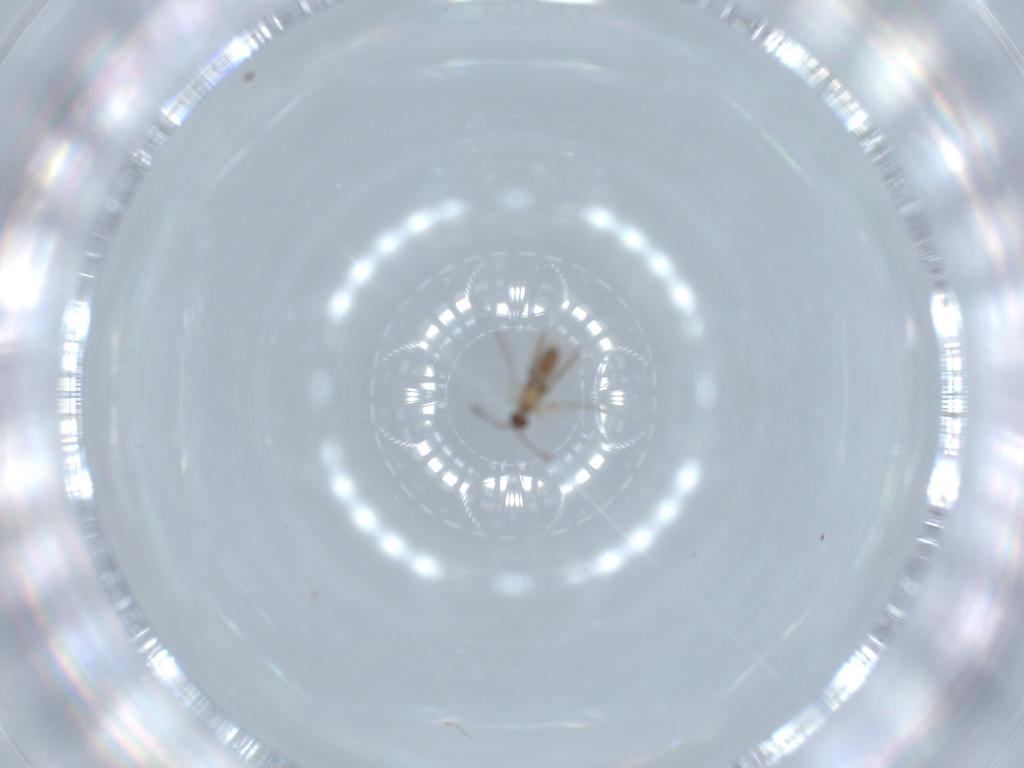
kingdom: Animalia
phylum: Arthropoda
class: Insecta
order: Hymenoptera
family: Mymaridae
